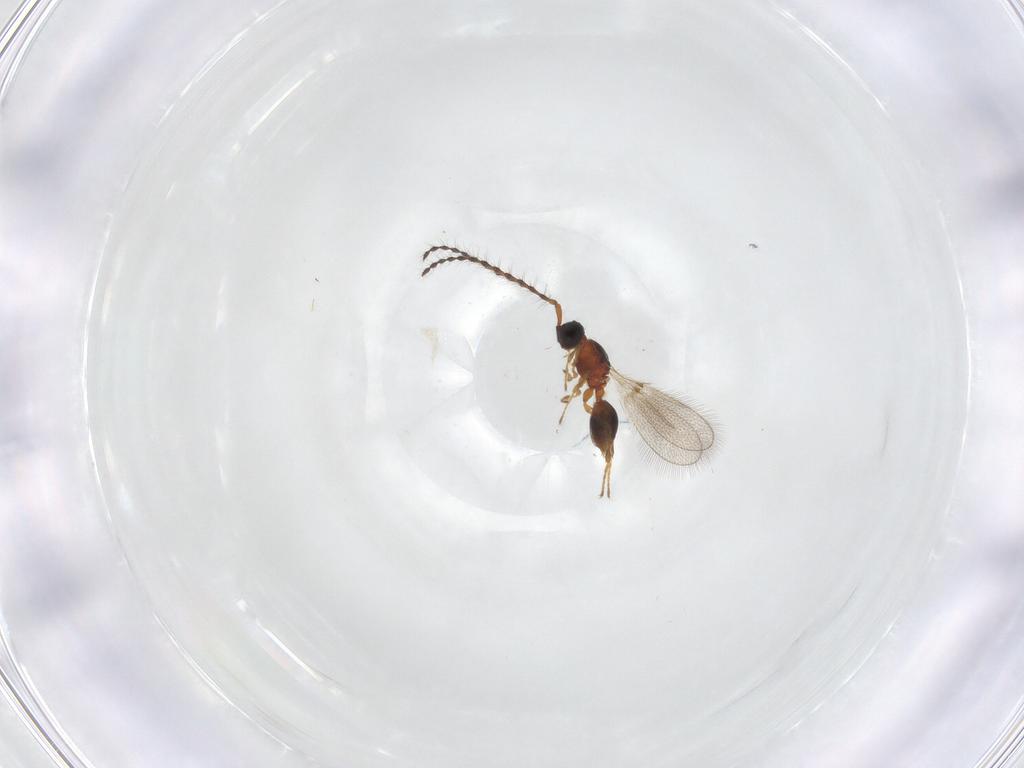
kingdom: Animalia
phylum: Arthropoda
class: Insecta
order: Hymenoptera
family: Diapriidae
